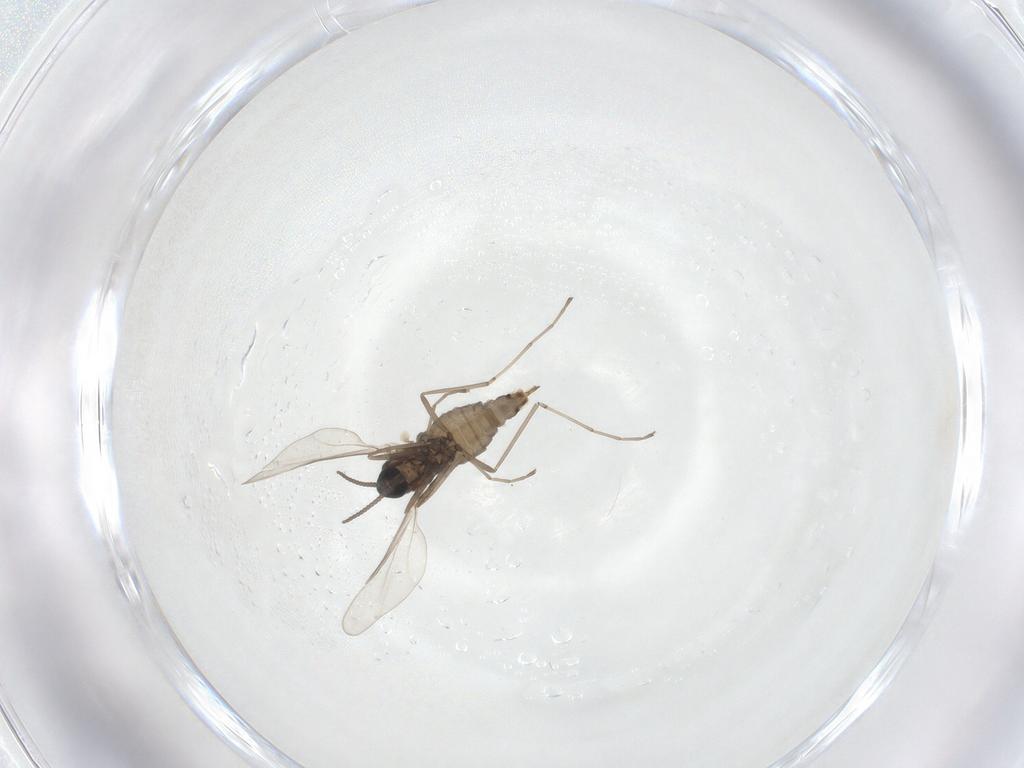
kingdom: Animalia
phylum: Arthropoda
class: Insecta
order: Diptera
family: Cecidomyiidae
